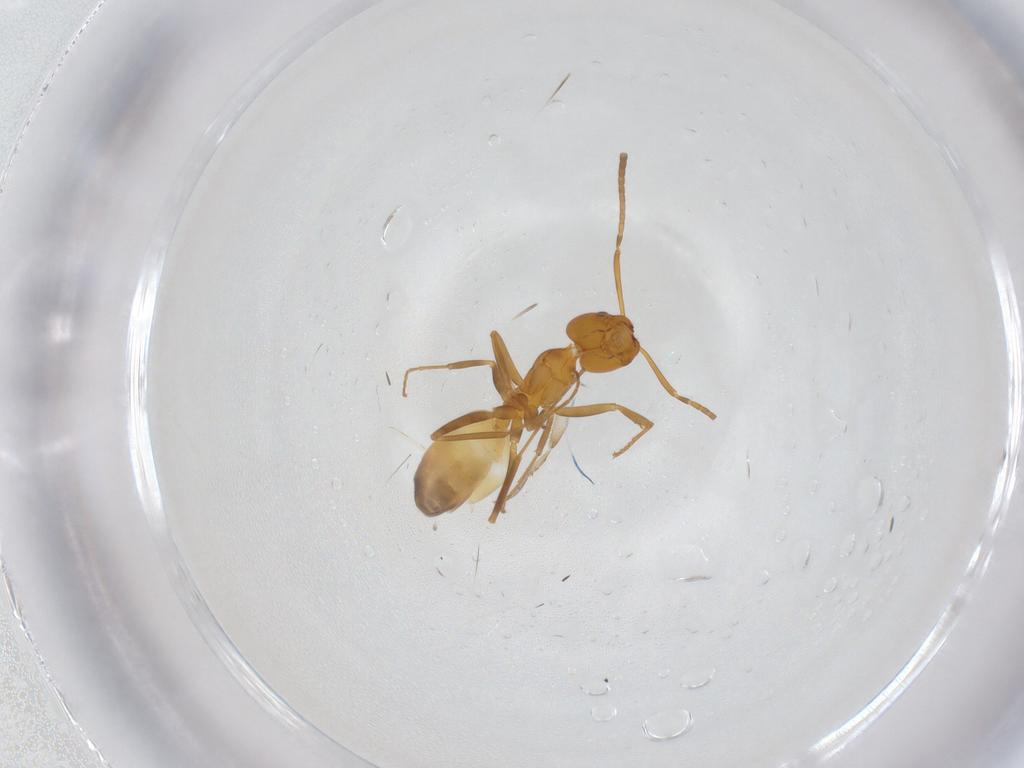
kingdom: Animalia
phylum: Arthropoda
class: Insecta
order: Hymenoptera
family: Formicidae
